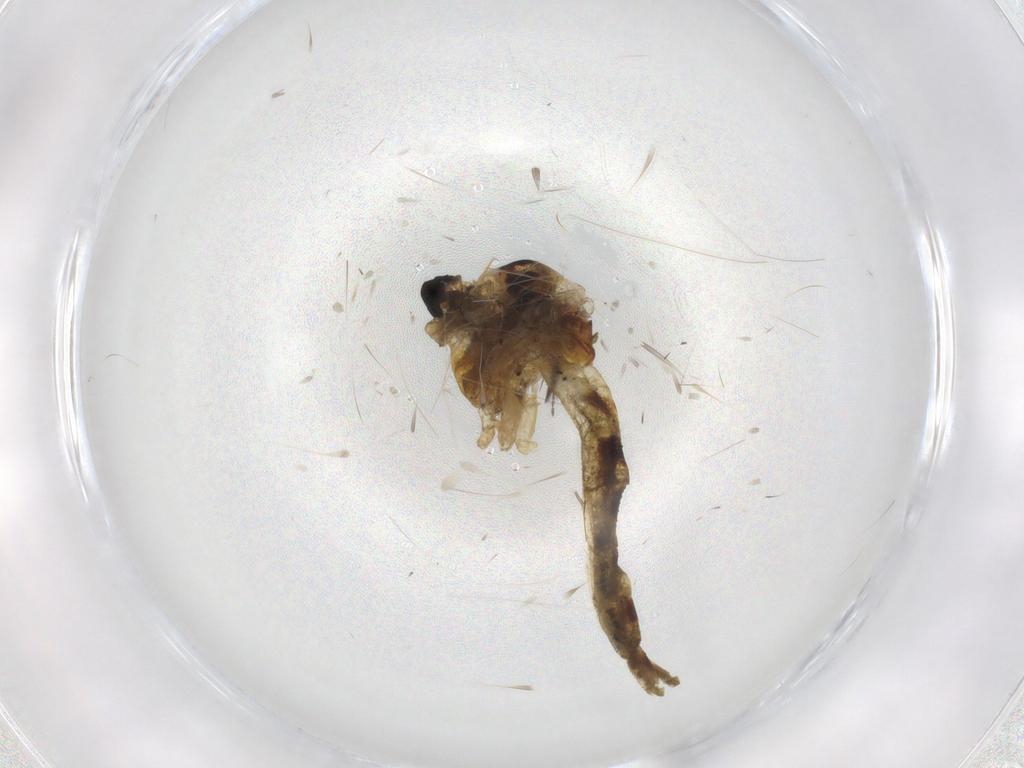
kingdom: Animalia
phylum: Arthropoda
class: Insecta
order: Diptera
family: Chironomidae
